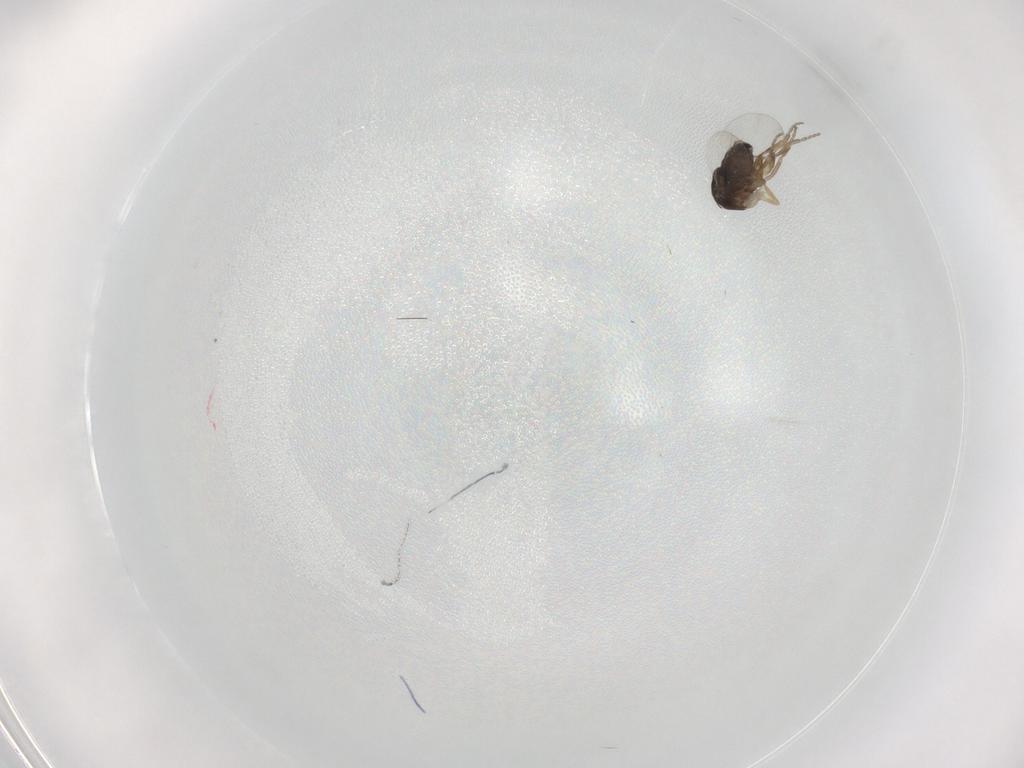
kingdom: Animalia
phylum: Arthropoda
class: Insecta
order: Diptera
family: Phoridae
